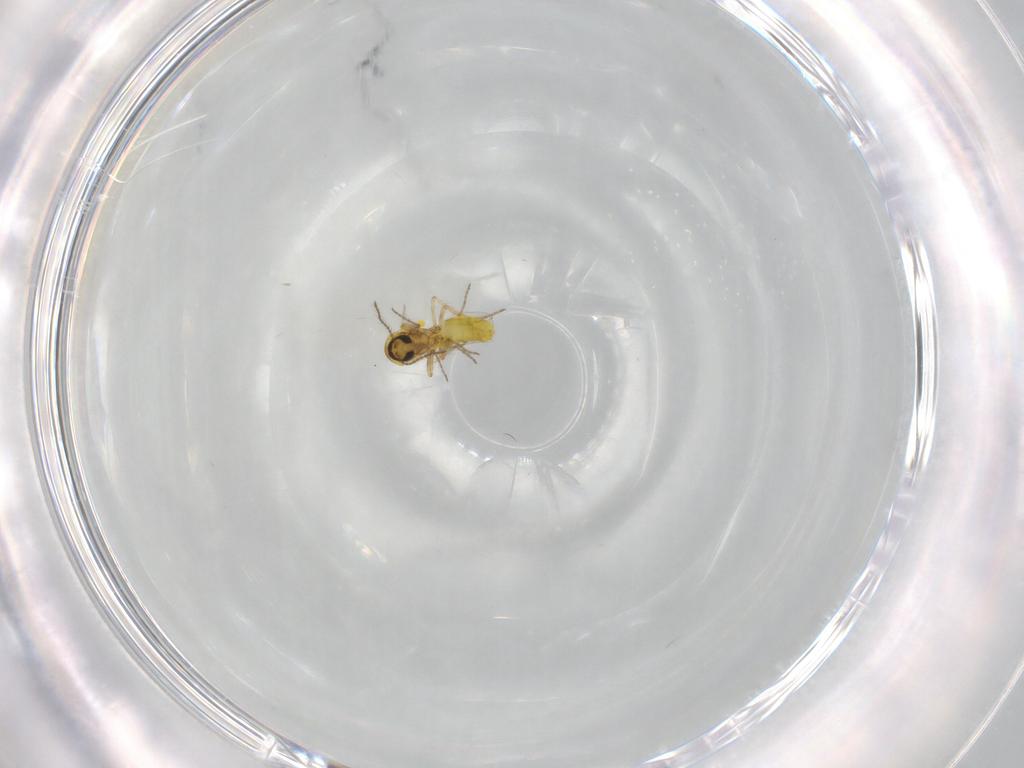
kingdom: Animalia
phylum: Arthropoda
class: Insecta
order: Diptera
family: Ceratopogonidae
